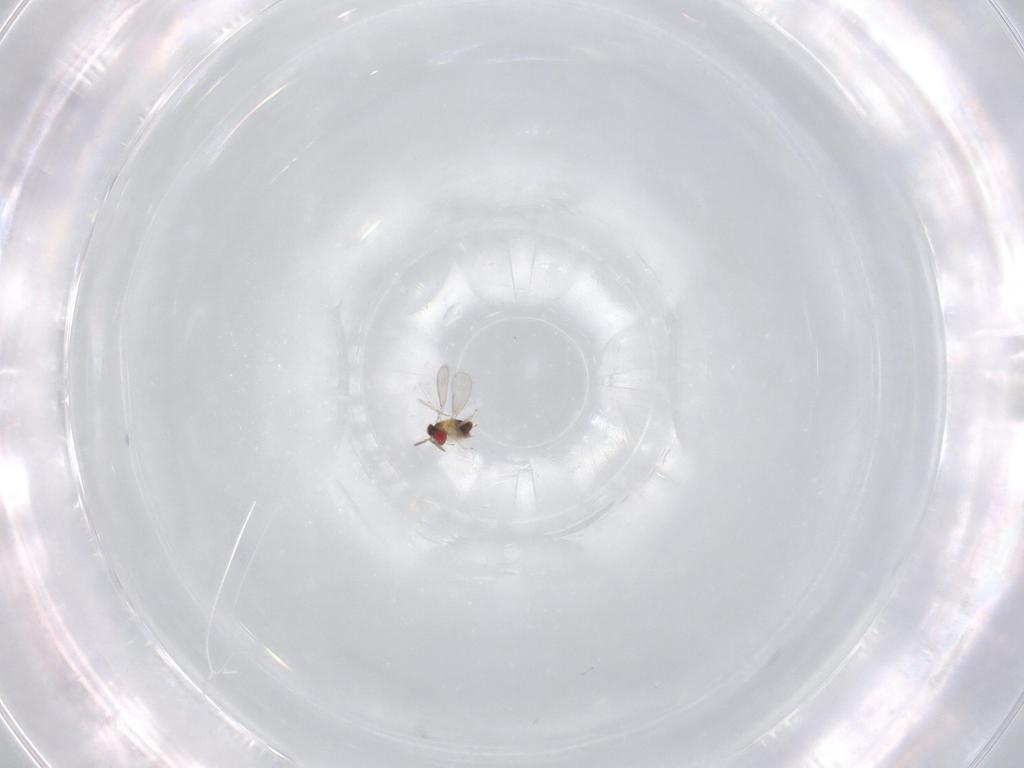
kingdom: Animalia
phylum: Arthropoda
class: Insecta
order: Hymenoptera
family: Aphelinidae
